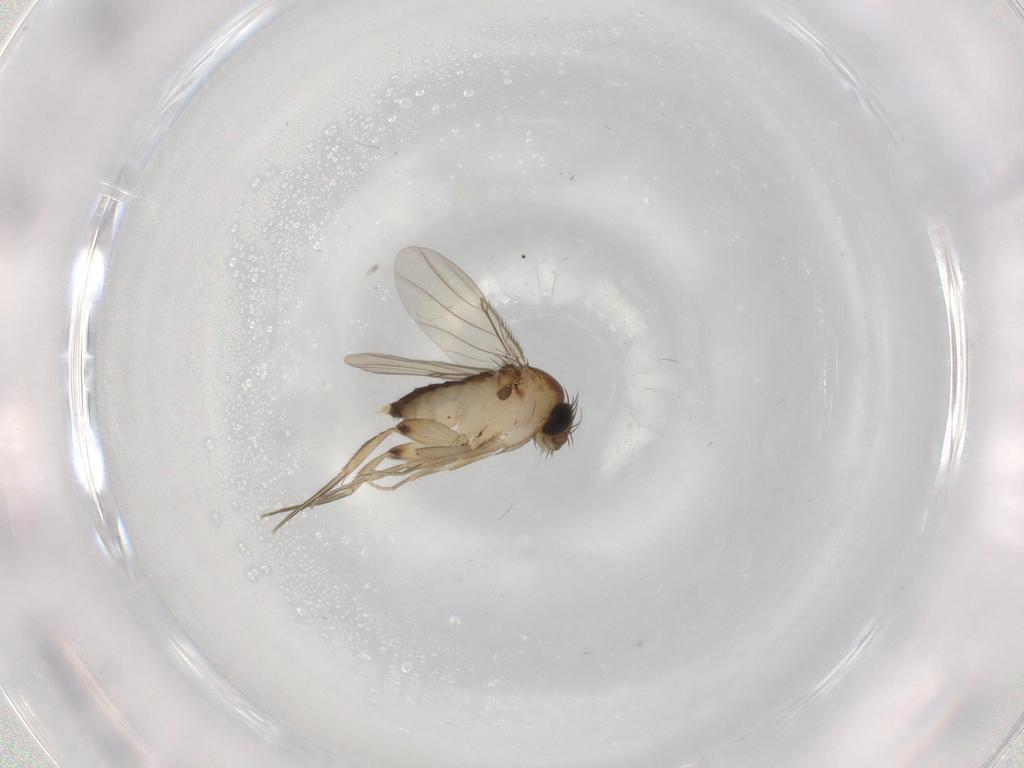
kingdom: Animalia
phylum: Arthropoda
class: Insecta
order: Diptera
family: Phoridae
